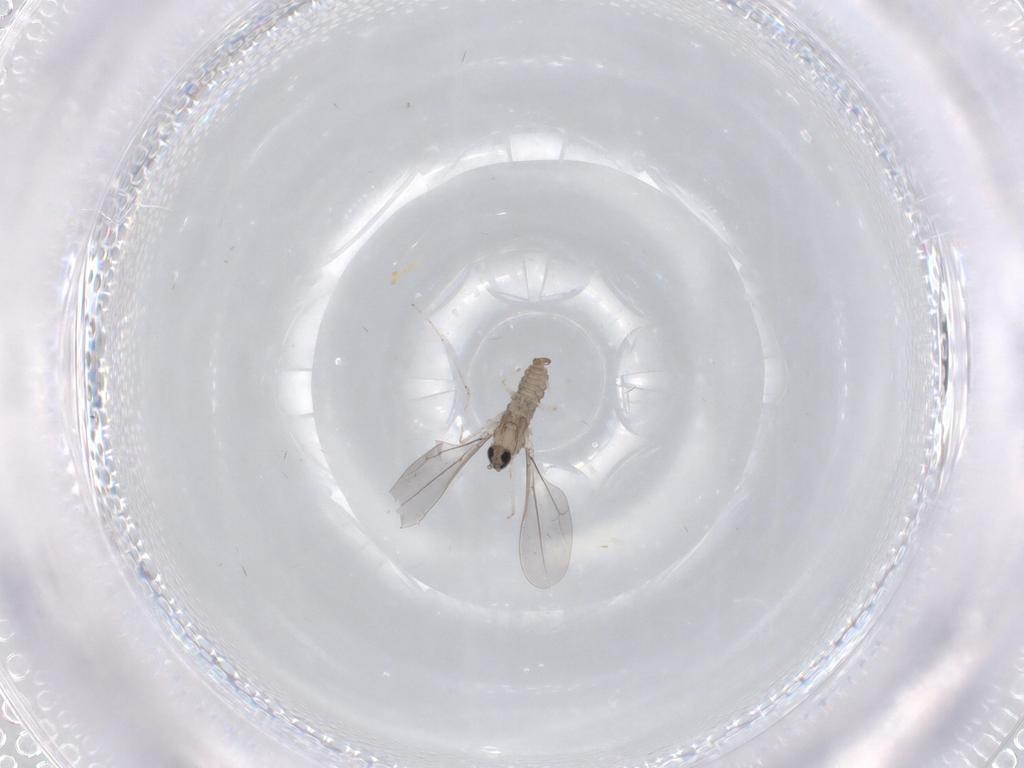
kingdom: Animalia
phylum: Arthropoda
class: Insecta
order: Diptera
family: Cecidomyiidae
